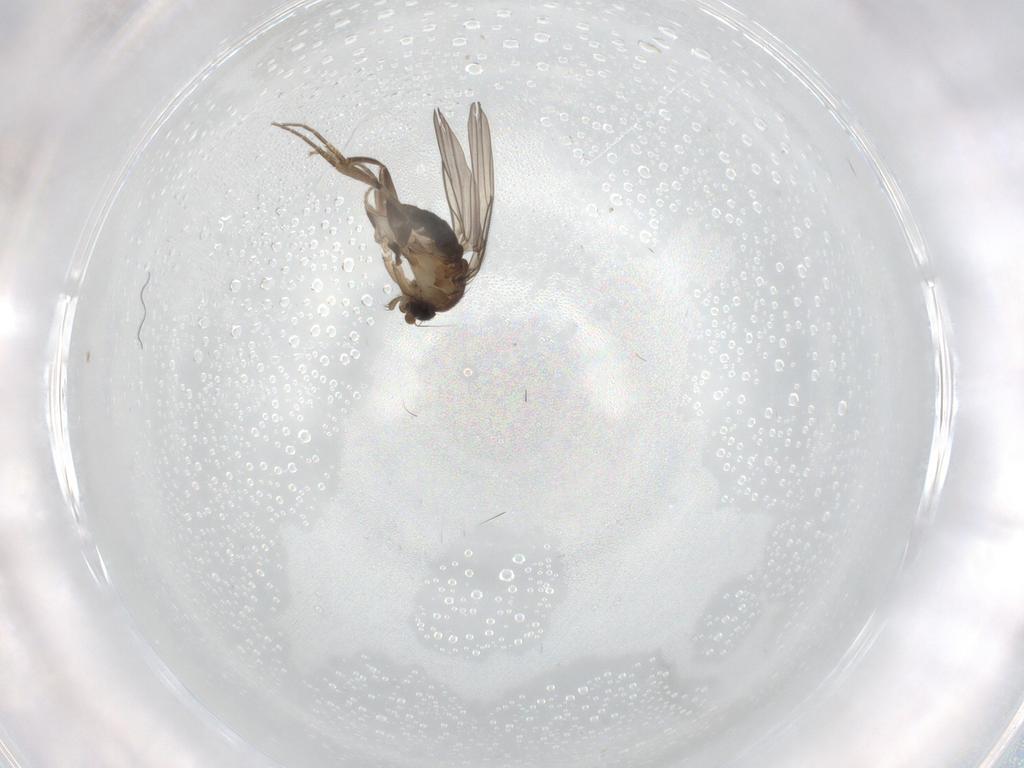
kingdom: Animalia
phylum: Arthropoda
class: Insecta
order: Diptera
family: Phoridae
